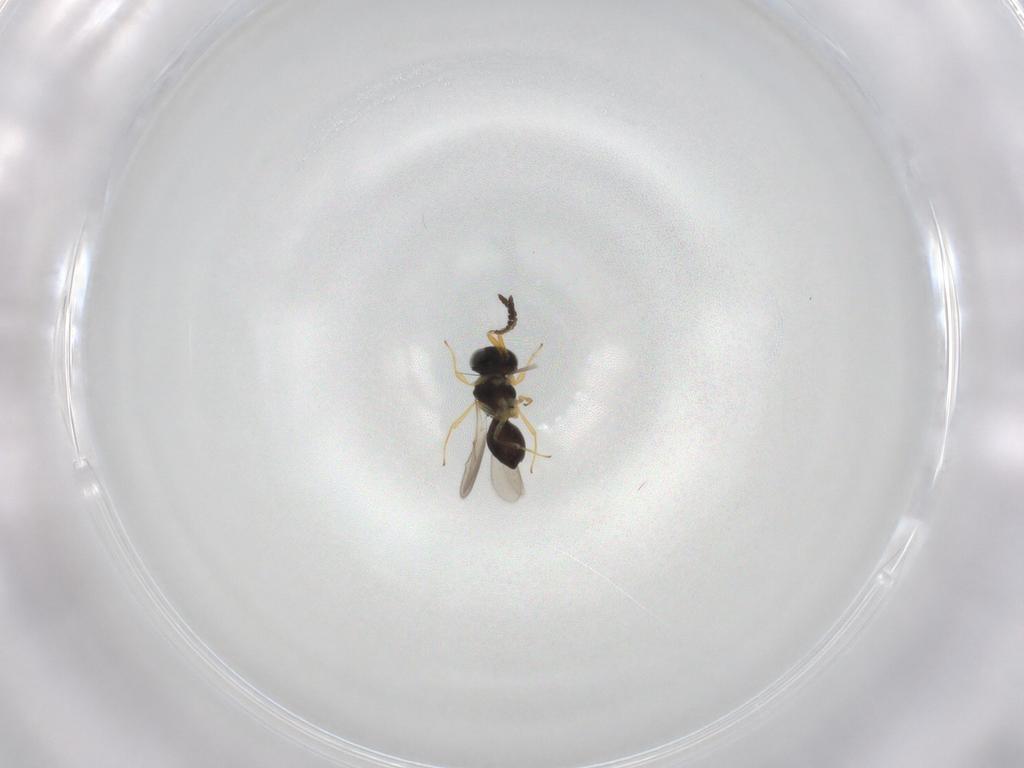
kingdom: Animalia
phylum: Arthropoda
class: Insecta
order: Hymenoptera
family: Scelionidae
